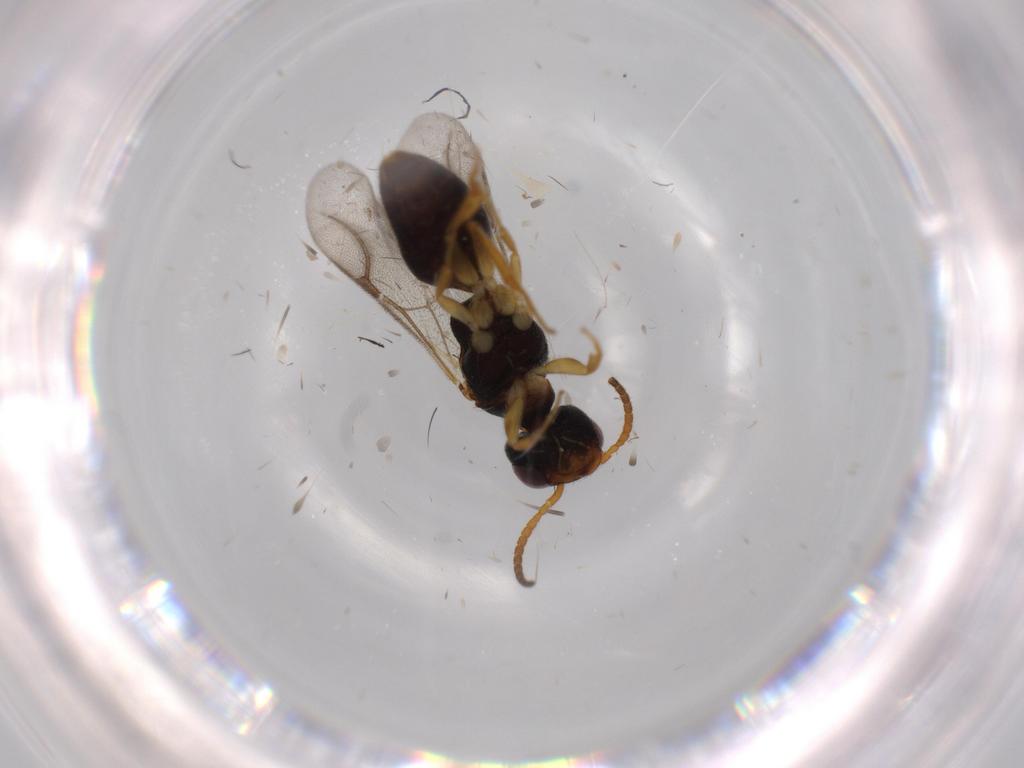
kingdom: Animalia
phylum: Arthropoda
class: Insecta
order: Hymenoptera
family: Bethylidae
